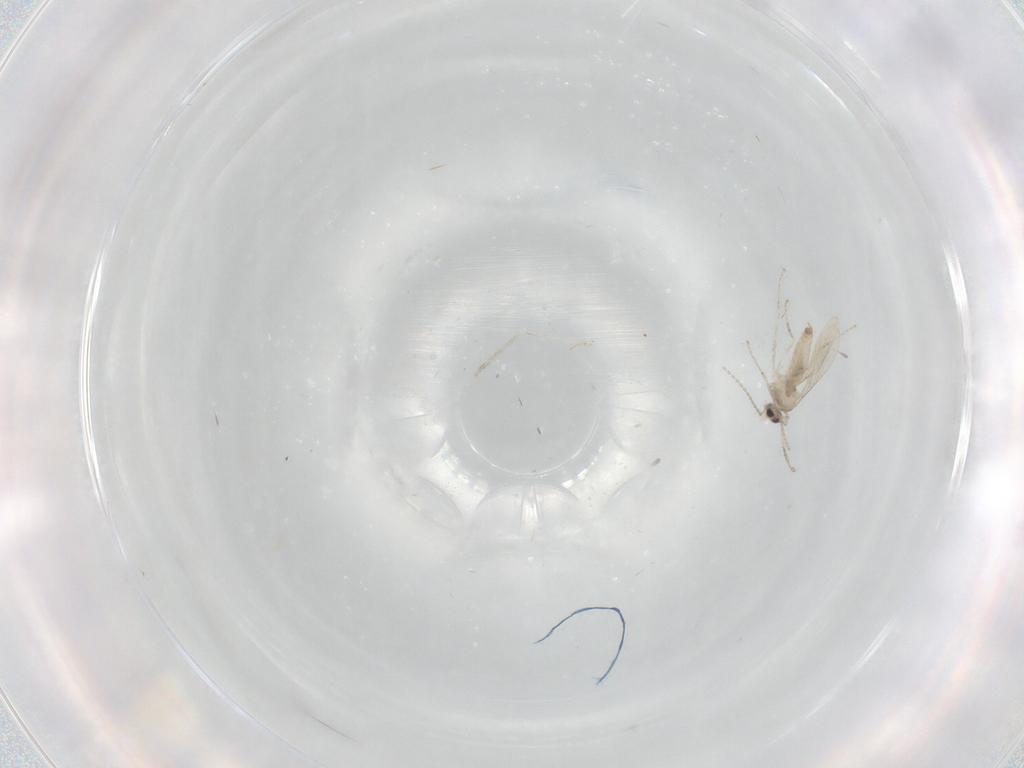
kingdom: Animalia
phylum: Arthropoda
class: Insecta
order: Diptera
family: Cecidomyiidae
